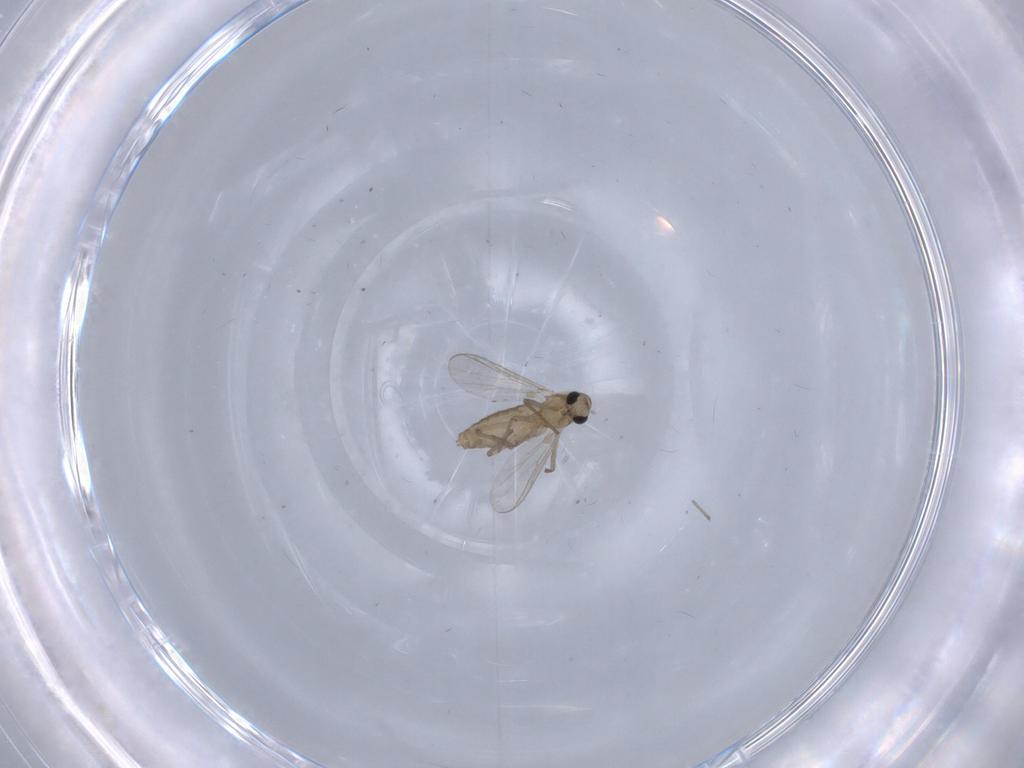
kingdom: Animalia
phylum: Arthropoda
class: Insecta
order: Diptera
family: Chironomidae
